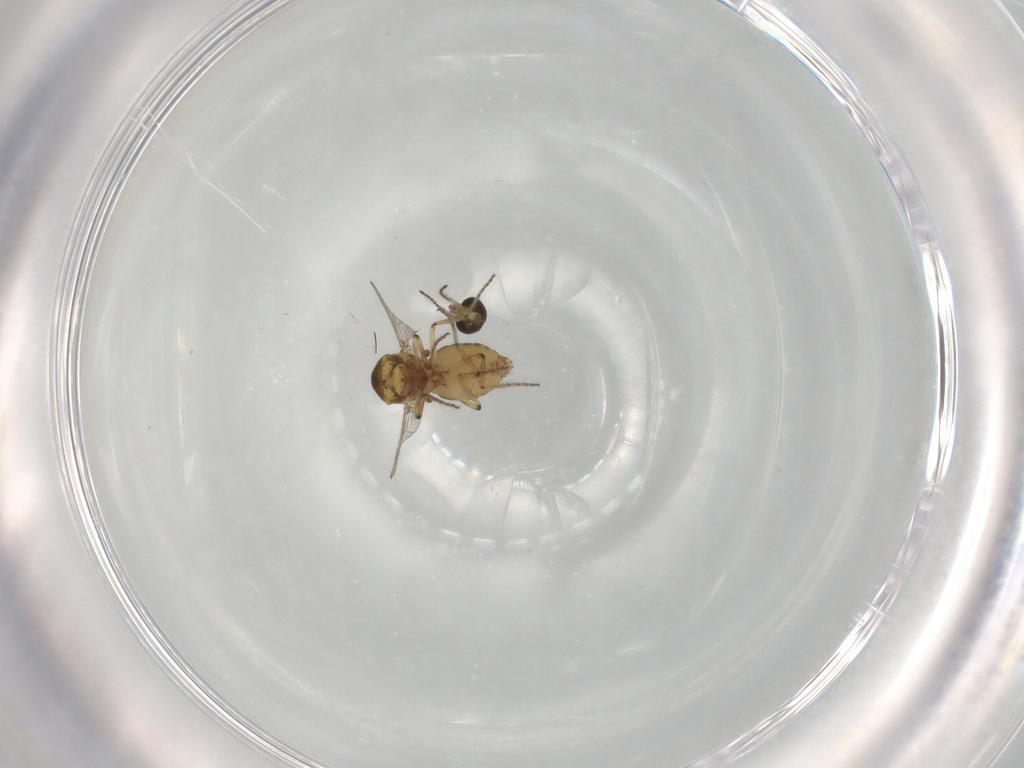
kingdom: Animalia
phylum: Arthropoda
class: Insecta
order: Diptera
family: Ceratopogonidae
